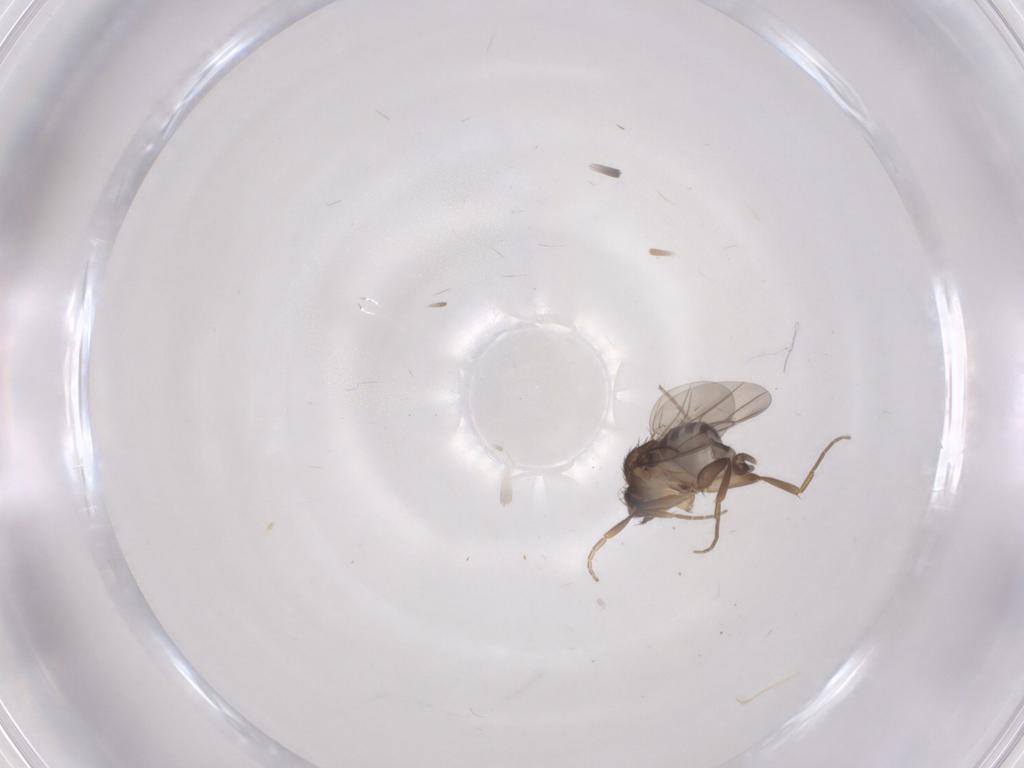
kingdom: Animalia
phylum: Arthropoda
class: Insecta
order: Diptera
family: Phoridae
